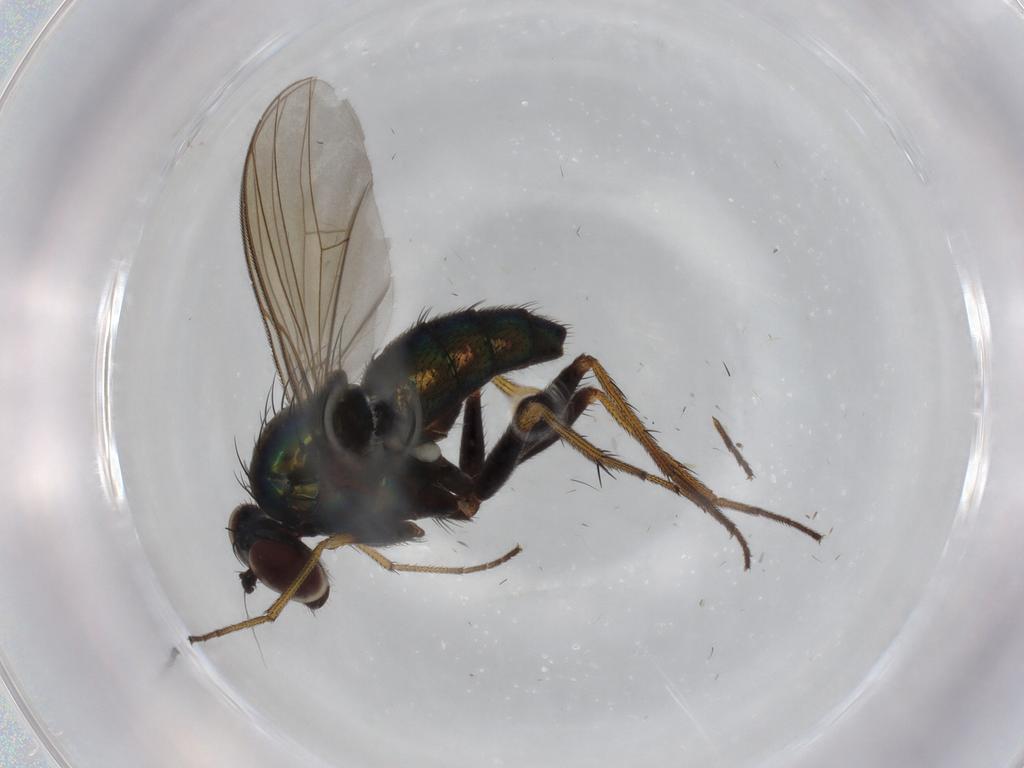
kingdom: Animalia
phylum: Arthropoda
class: Insecta
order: Diptera
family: Dolichopodidae
